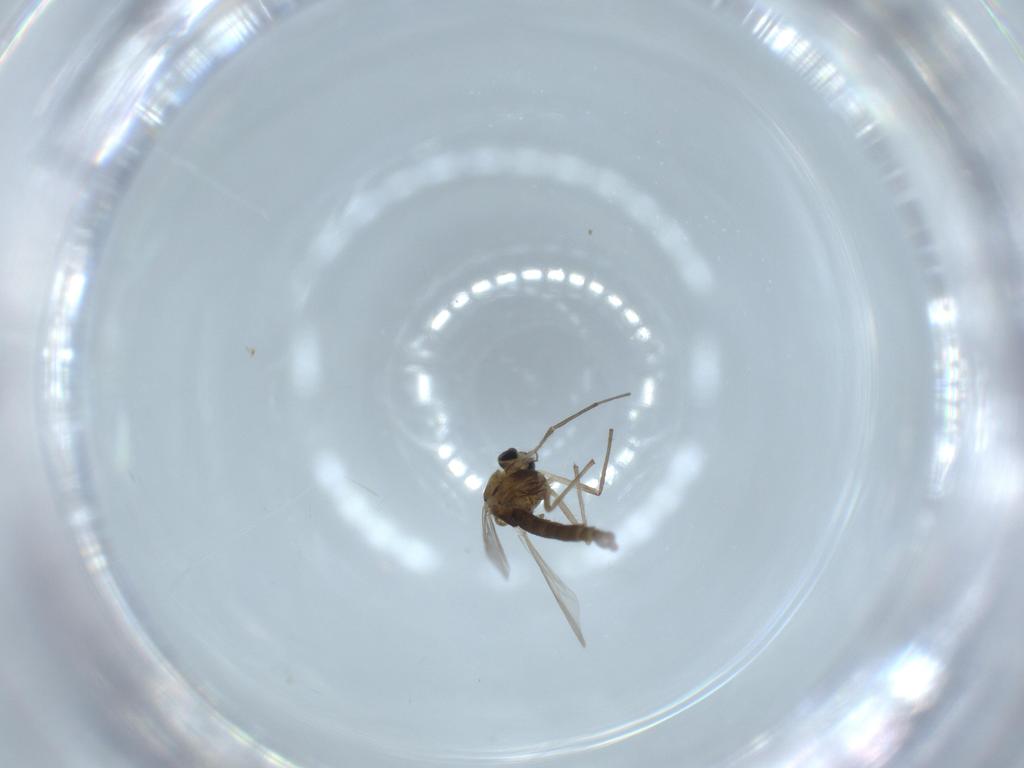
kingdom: Animalia
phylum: Arthropoda
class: Insecta
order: Diptera
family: Chironomidae
